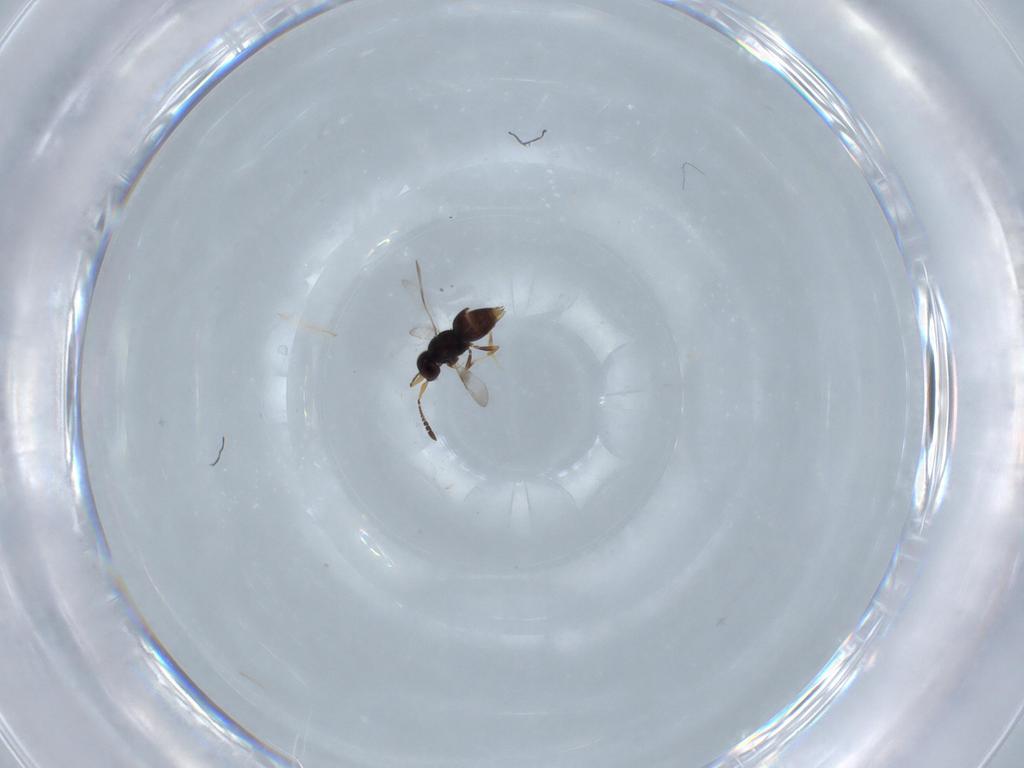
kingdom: Animalia
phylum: Arthropoda
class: Insecta
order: Hymenoptera
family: Ceraphronidae
